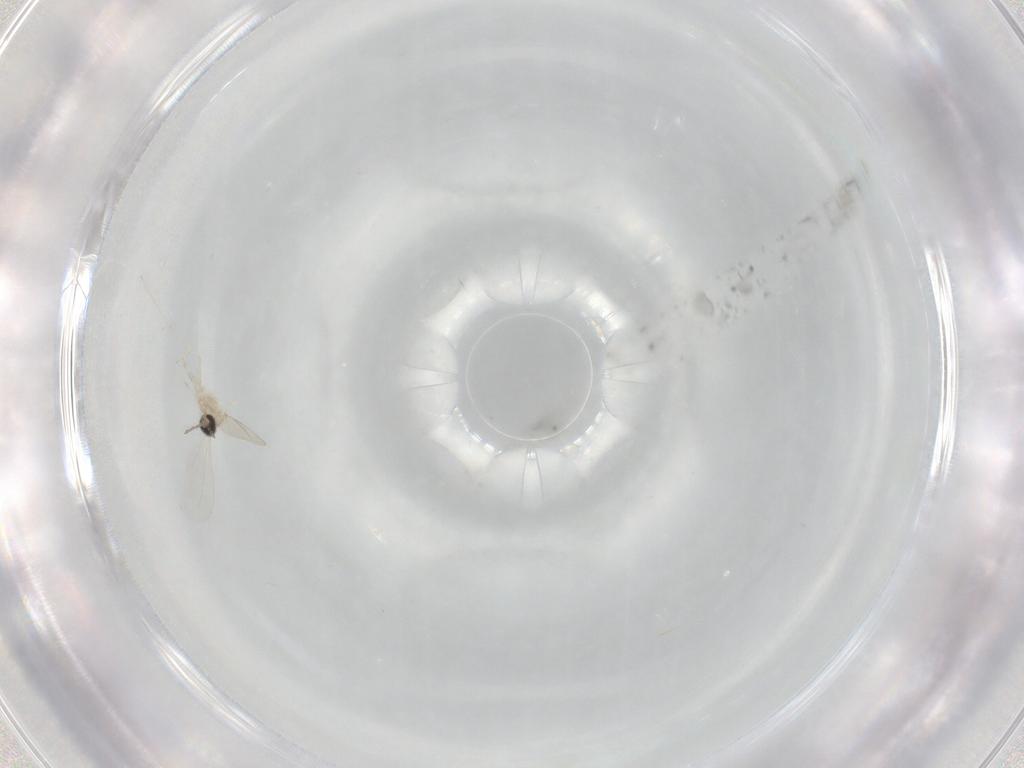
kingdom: Animalia
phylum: Arthropoda
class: Insecta
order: Diptera
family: Cecidomyiidae
